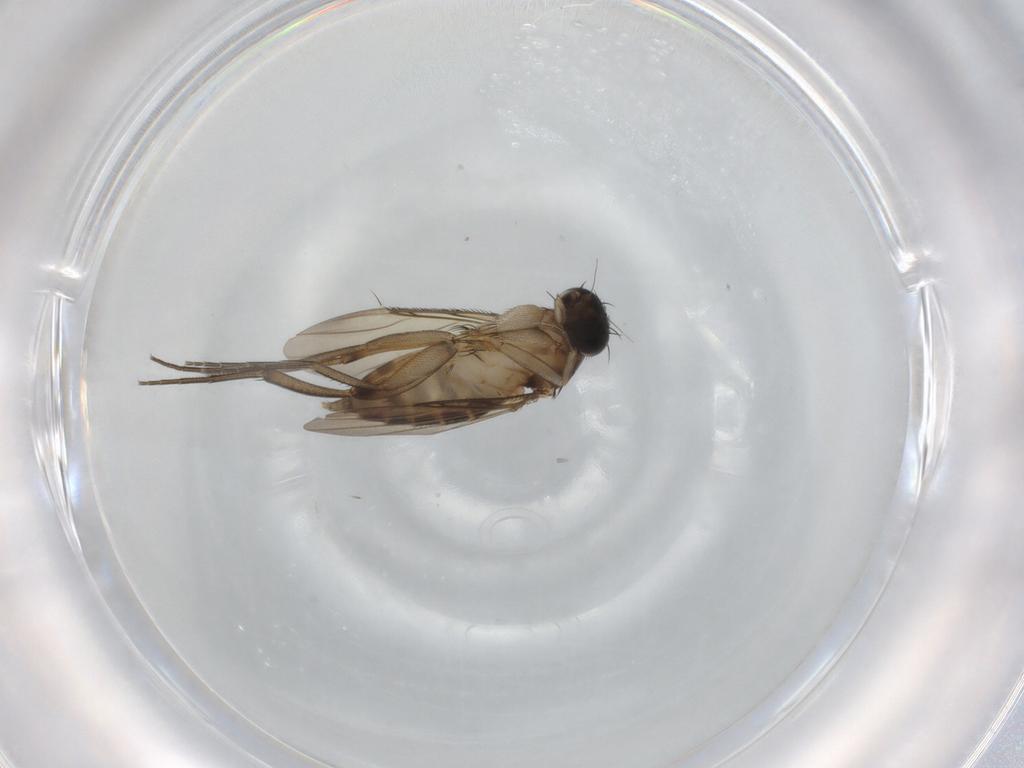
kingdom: Animalia
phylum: Arthropoda
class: Insecta
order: Diptera
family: Phoridae
